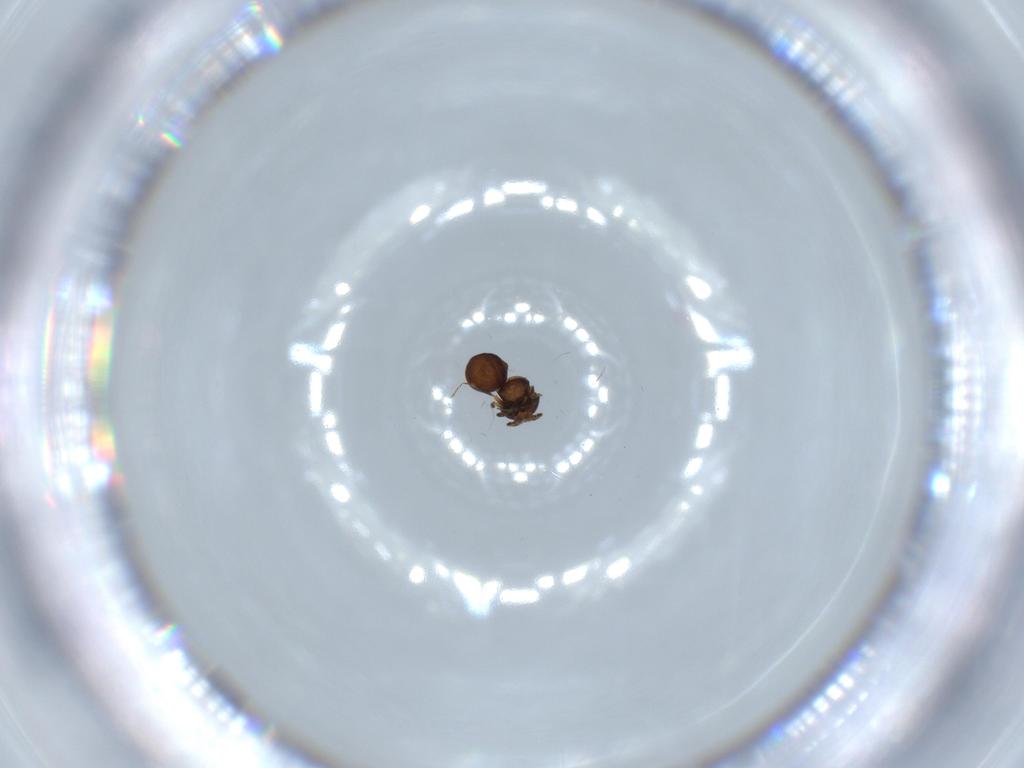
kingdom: Animalia
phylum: Arthropoda
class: Insecta
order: Hymenoptera
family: Scelionidae
